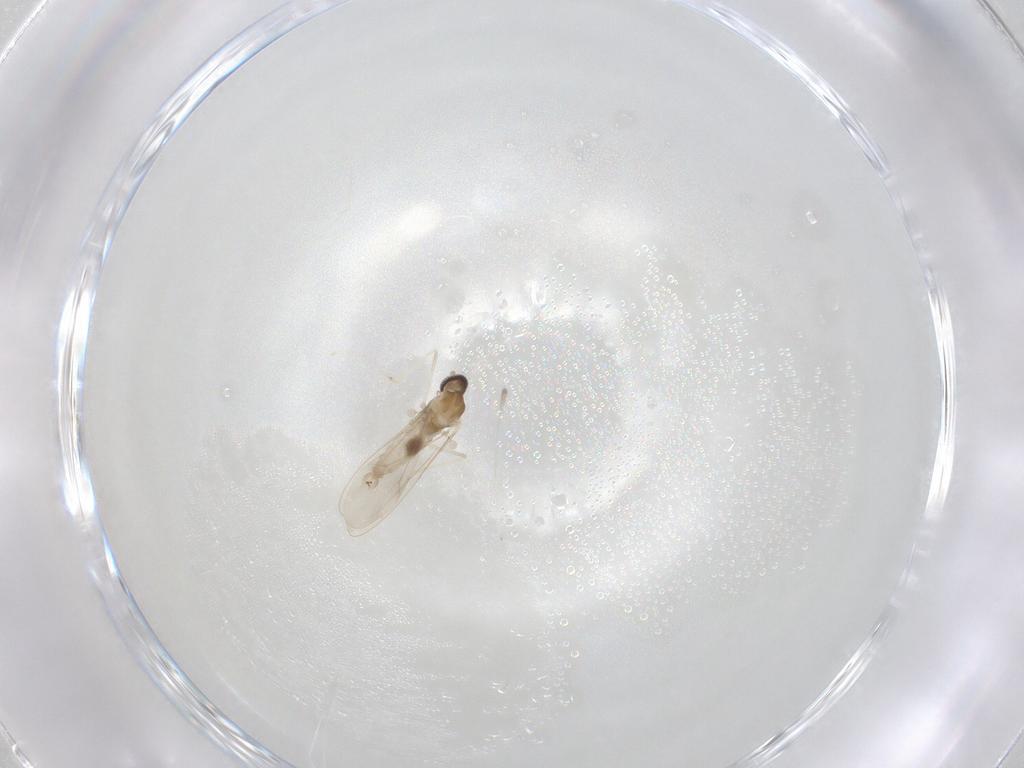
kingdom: Animalia
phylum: Arthropoda
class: Insecta
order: Diptera
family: Cecidomyiidae
